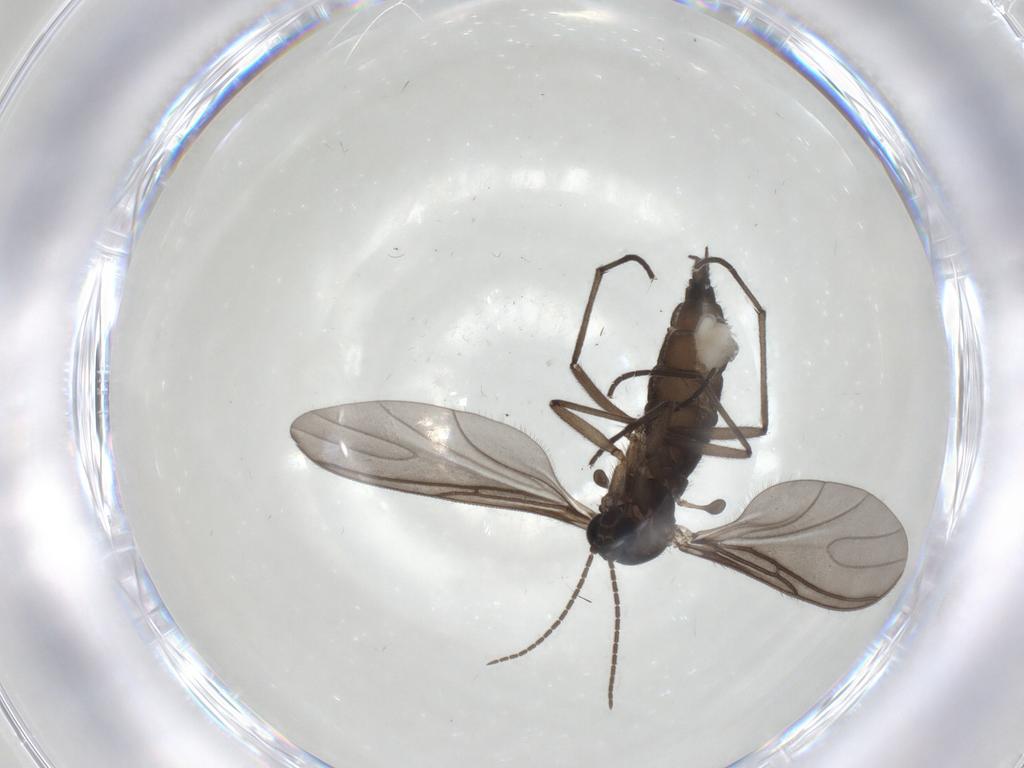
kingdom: Animalia
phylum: Arthropoda
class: Insecta
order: Diptera
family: Sciaridae
